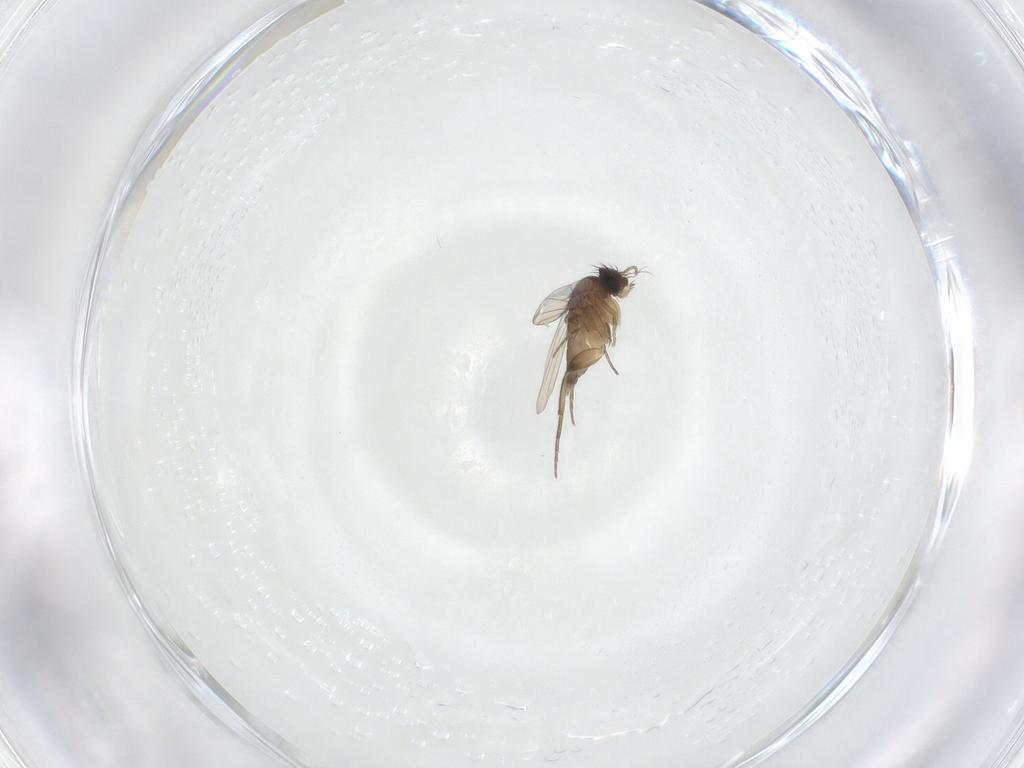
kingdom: Animalia
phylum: Arthropoda
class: Insecta
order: Diptera
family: Phoridae
